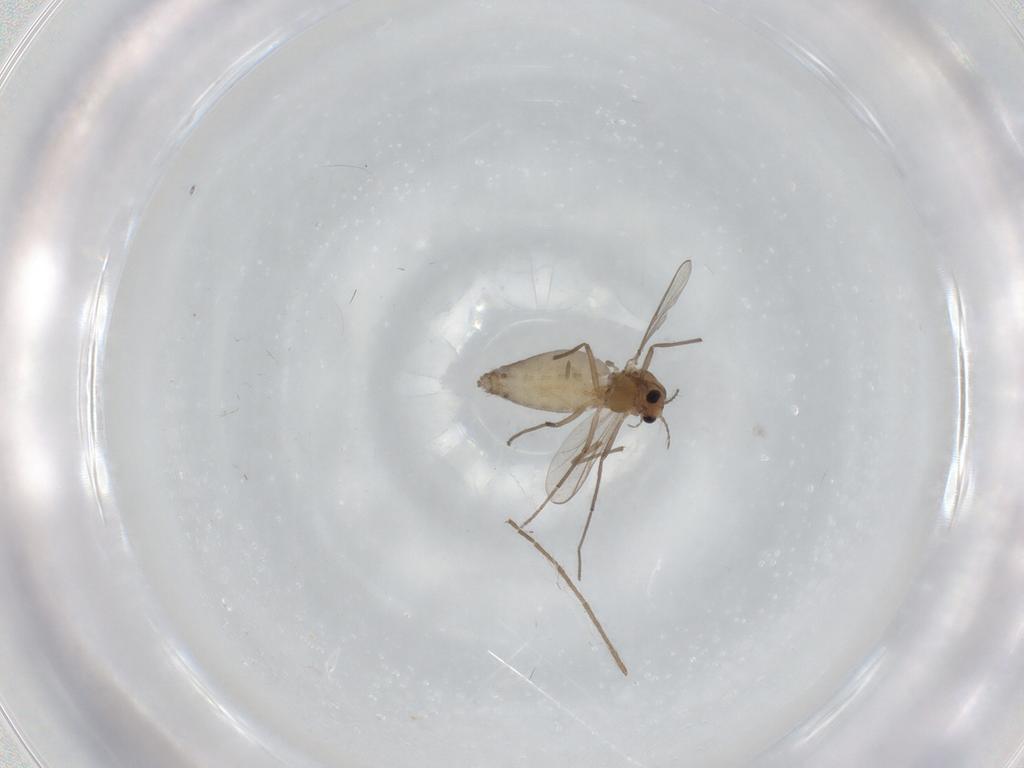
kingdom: Animalia
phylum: Arthropoda
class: Insecta
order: Diptera
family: Chironomidae
